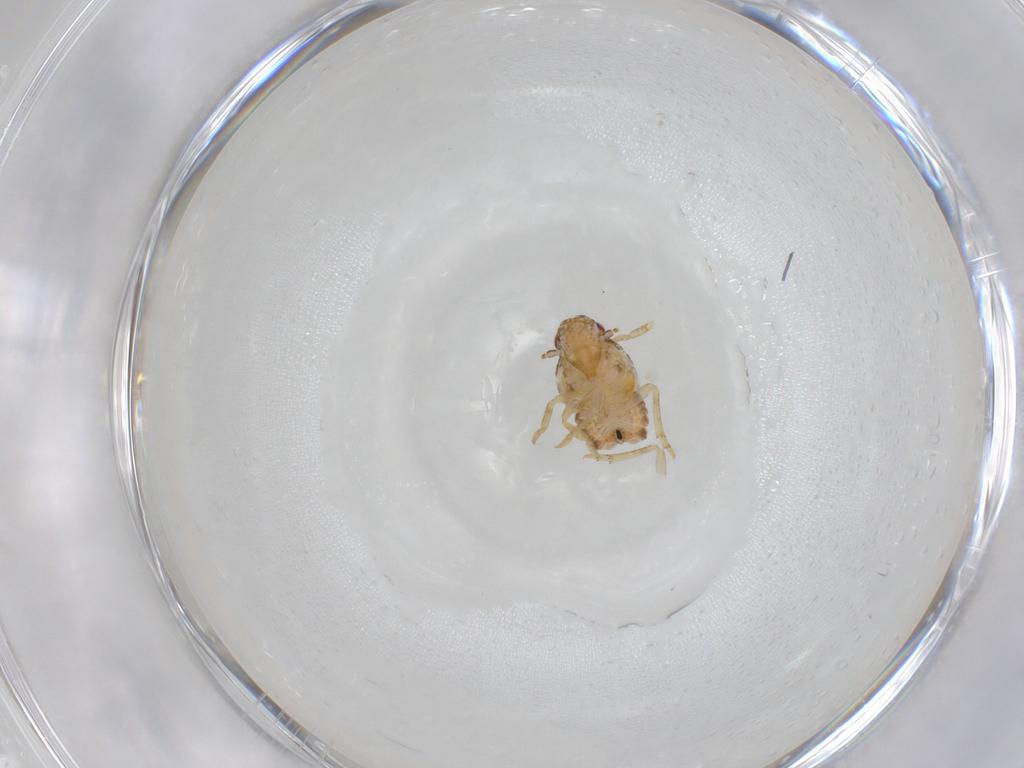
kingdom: Animalia
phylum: Arthropoda
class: Insecta
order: Hemiptera
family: Flatidae
